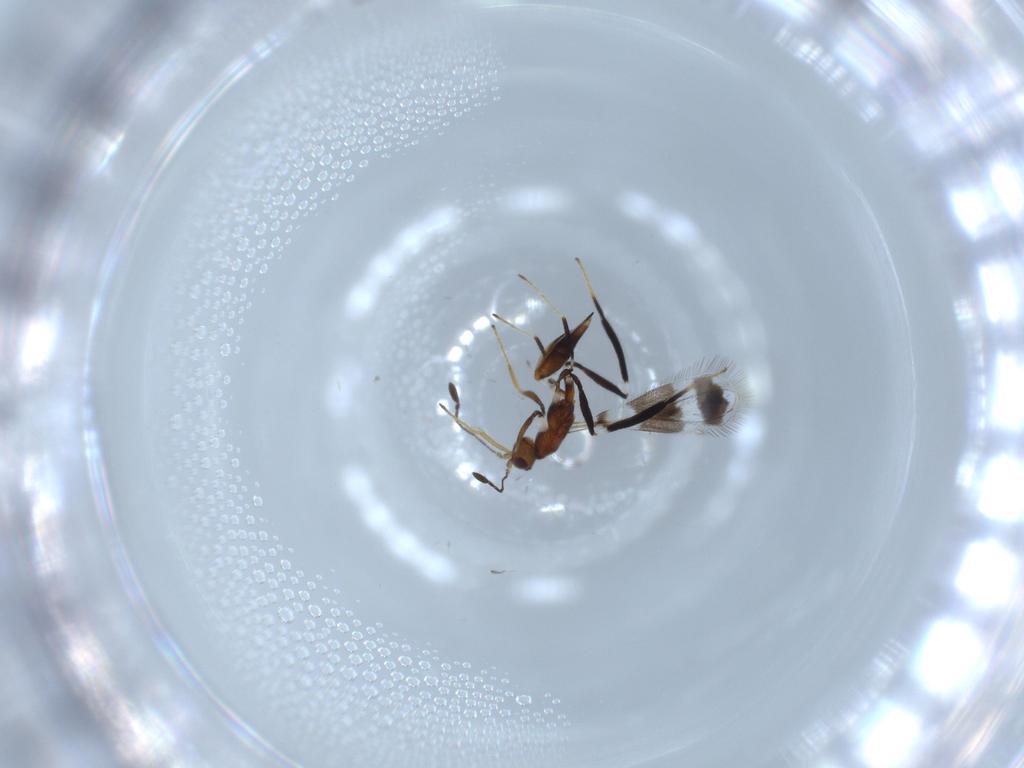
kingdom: Animalia
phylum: Arthropoda
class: Insecta
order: Hymenoptera
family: Mymaridae
